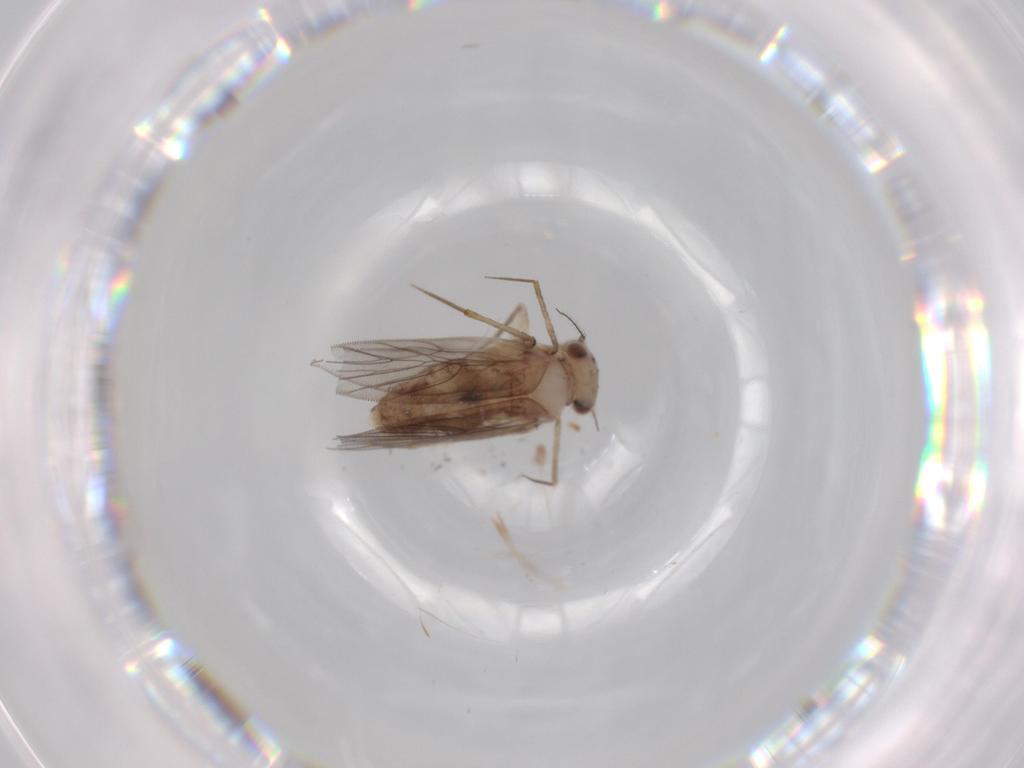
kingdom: Animalia
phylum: Arthropoda
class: Insecta
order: Psocodea
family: Lepidopsocidae
